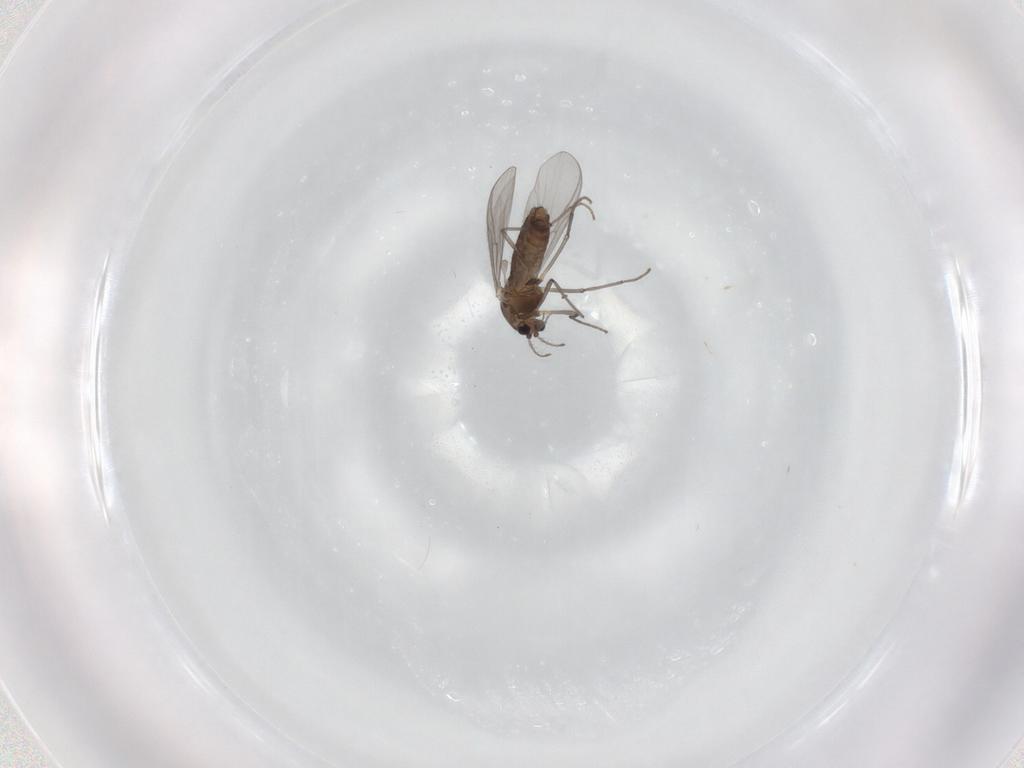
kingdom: Animalia
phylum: Arthropoda
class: Insecta
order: Diptera
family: Chironomidae
